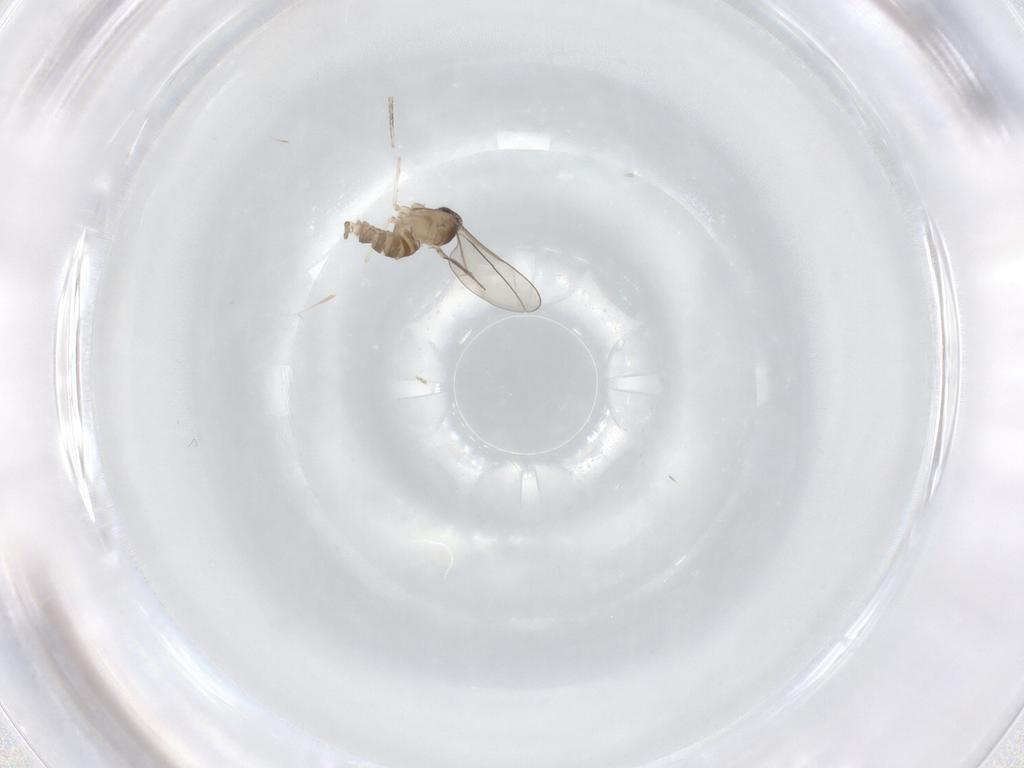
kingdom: Animalia
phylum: Arthropoda
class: Insecta
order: Diptera
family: Cecidomyiidae
